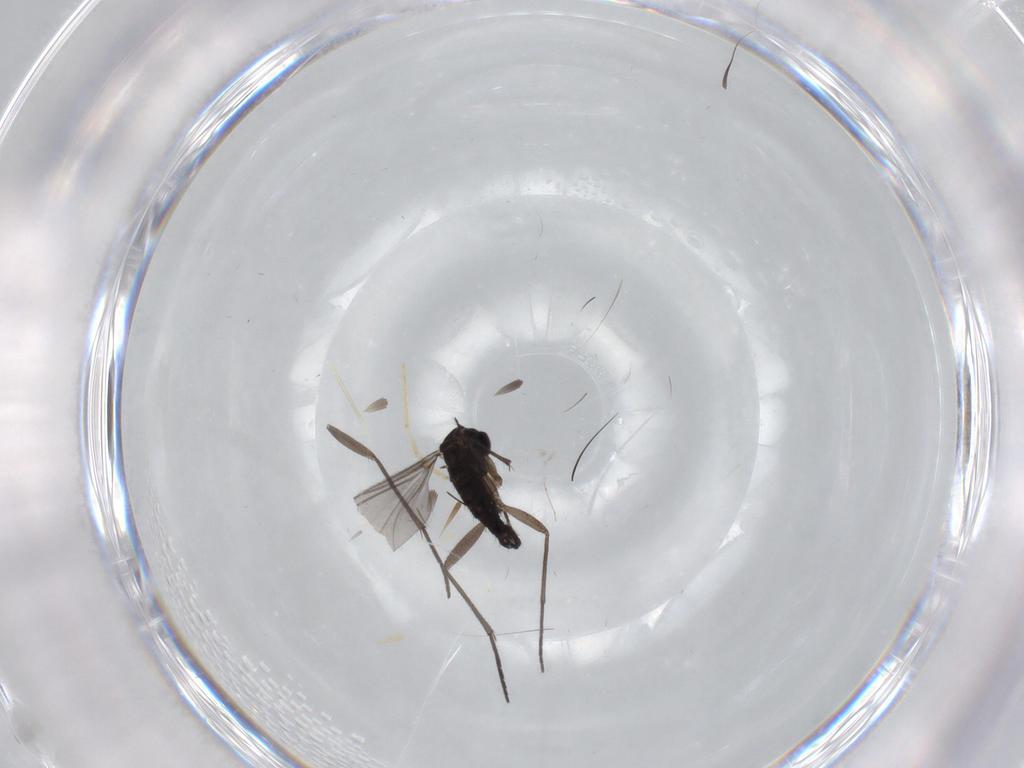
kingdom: Animalia
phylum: Arthropoda
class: Insecta
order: Diptera
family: Sciaridae
